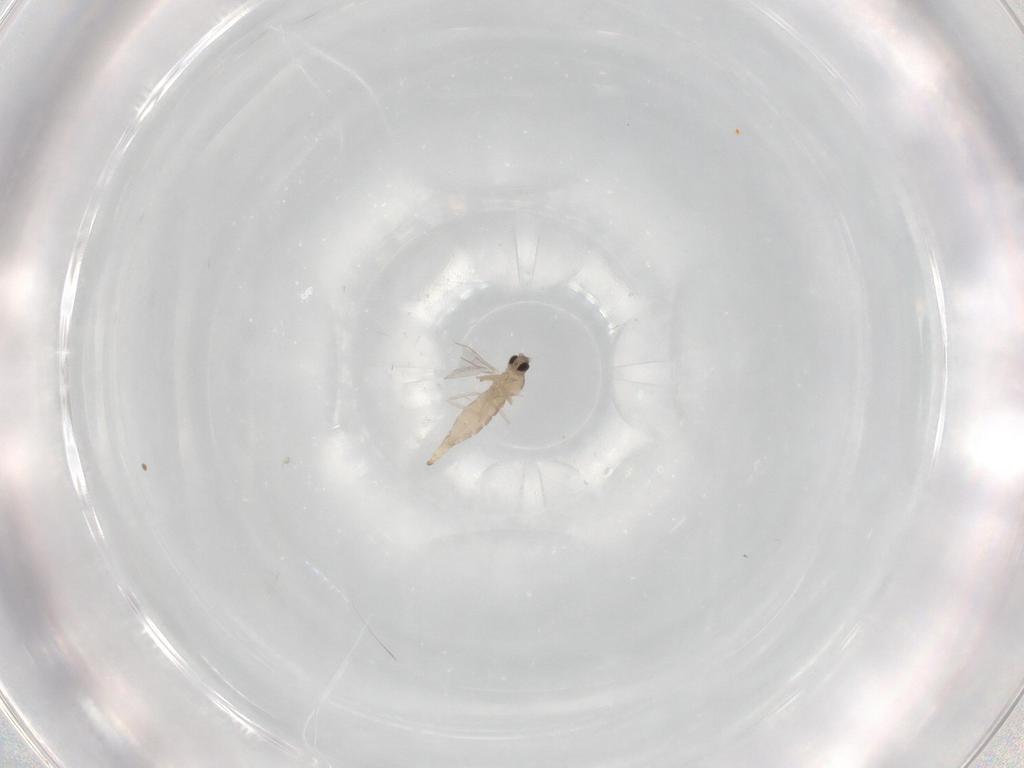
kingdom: Animalia
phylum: Arthropoda
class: Insecta
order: Diptera
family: Cecidomyiidae
